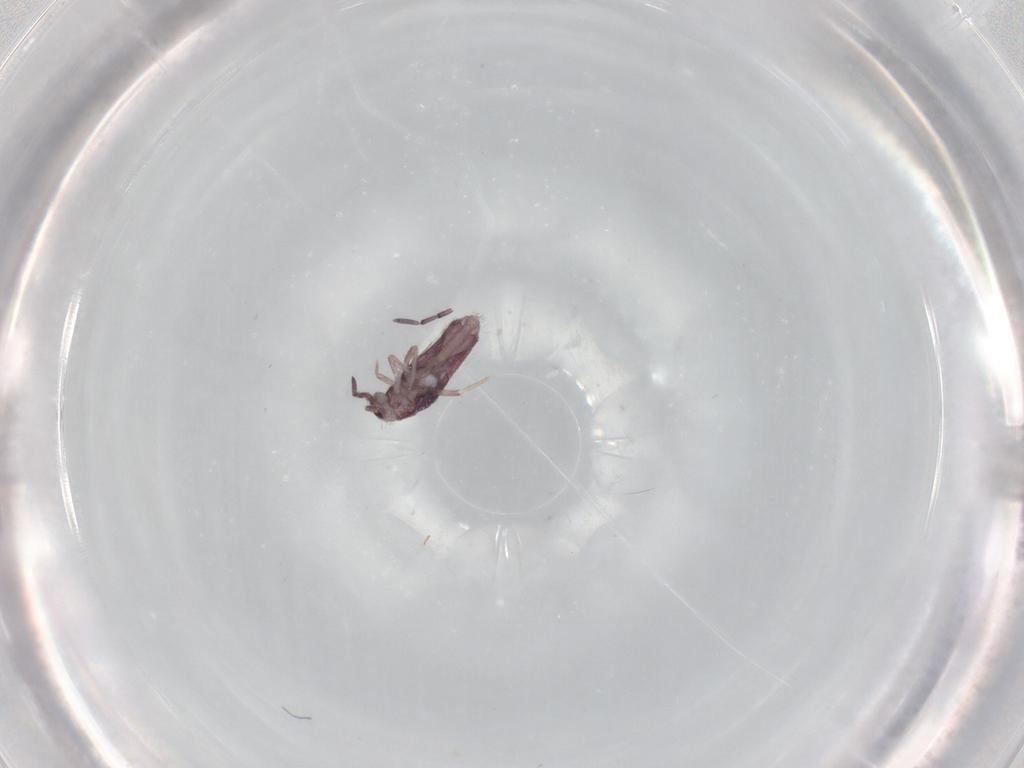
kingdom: Animalia
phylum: Arthropoda
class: Collembola
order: Entomobryomorpha
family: Entomobryidae
